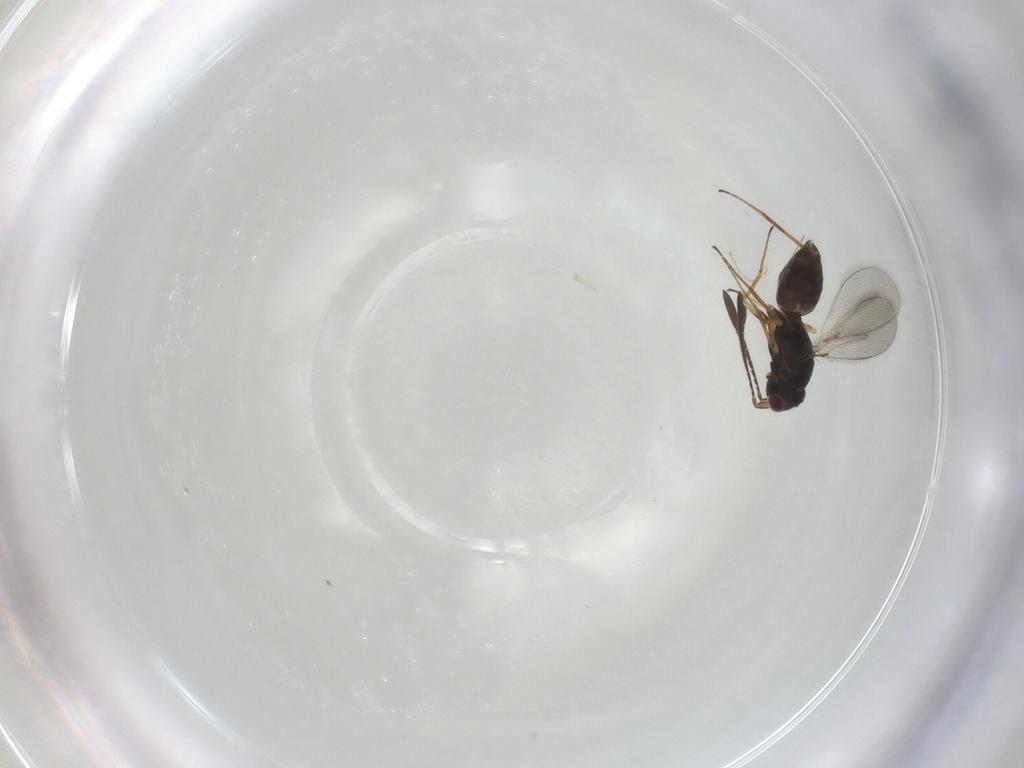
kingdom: Animalia
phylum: Arthropoda
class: Insecta
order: Hymenoptera
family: Mymaridae
